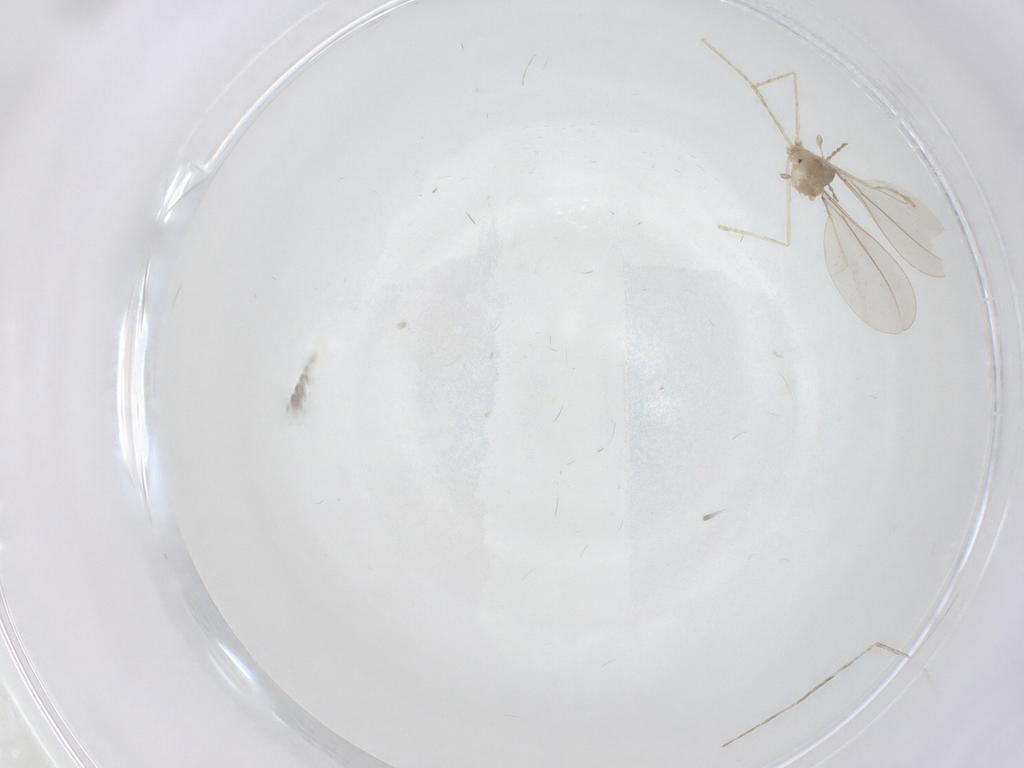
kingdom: Animalia
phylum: Arthropoda
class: Insecta
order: Diptera
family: Cecidomyiidae
